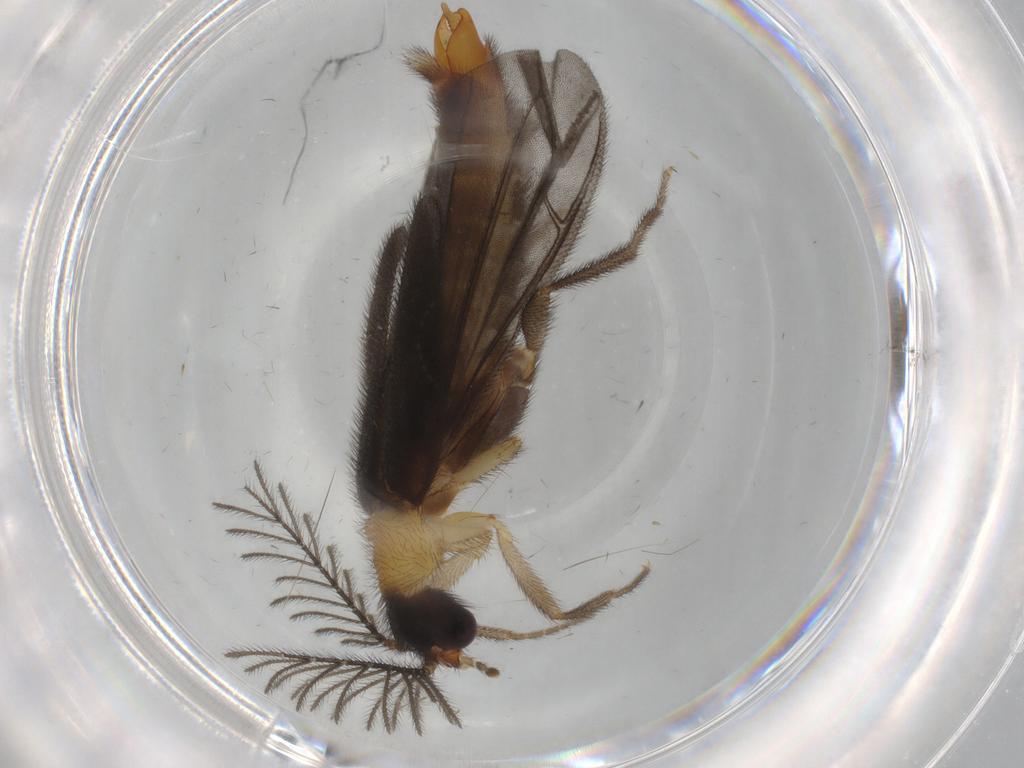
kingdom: Animalia
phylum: Arthropoda
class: Insecta
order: Coleoptera
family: Phengodidae
